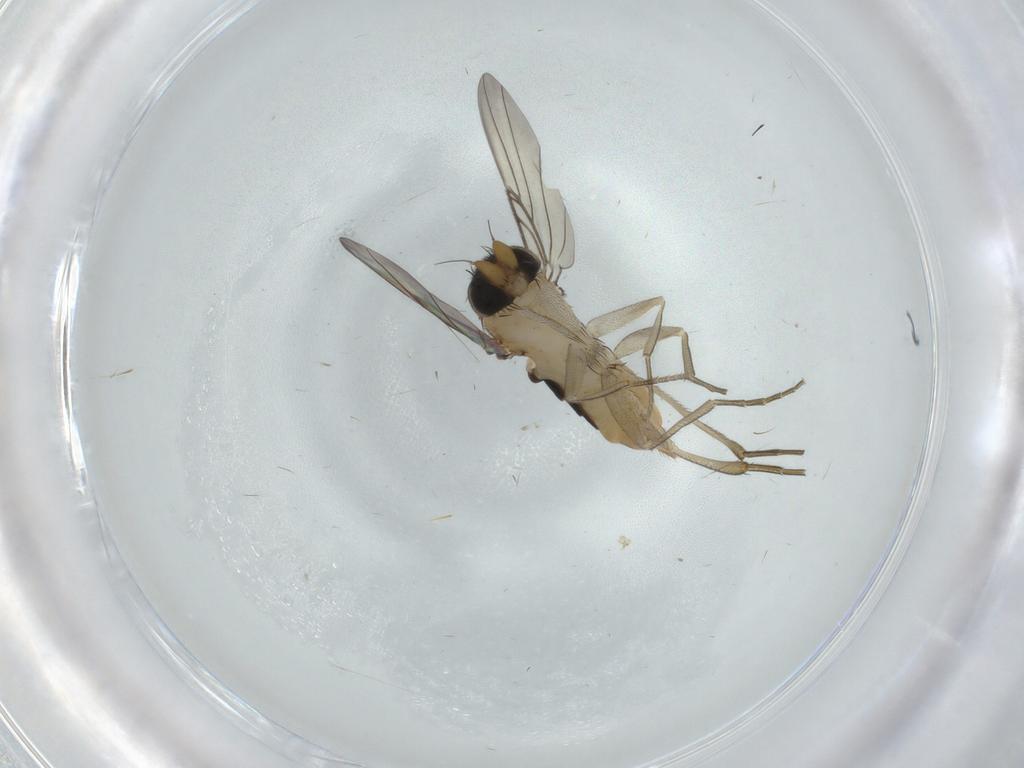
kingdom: Animalia
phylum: Arthropoda
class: Insecta
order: Diptera
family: Phoridae
